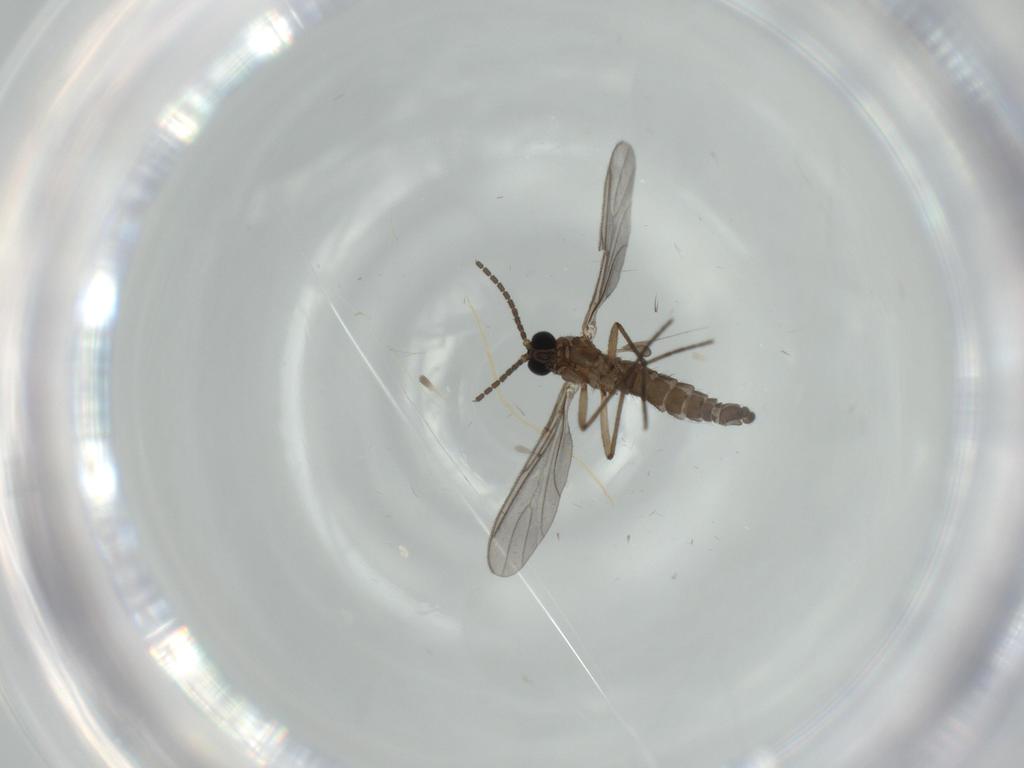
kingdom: Animalia
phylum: Arthropoda
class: Insecta
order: Diptera
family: Sciaridae
